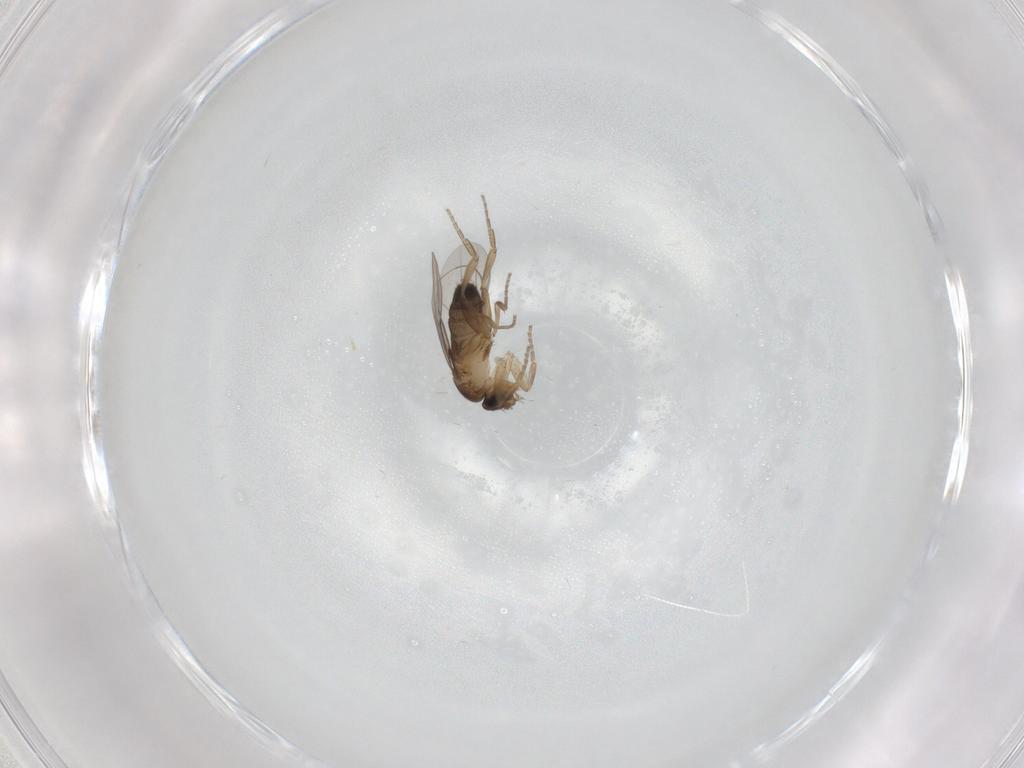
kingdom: Animalia
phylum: Arthropoda
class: Insecta
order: Diptera
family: Phoridae
